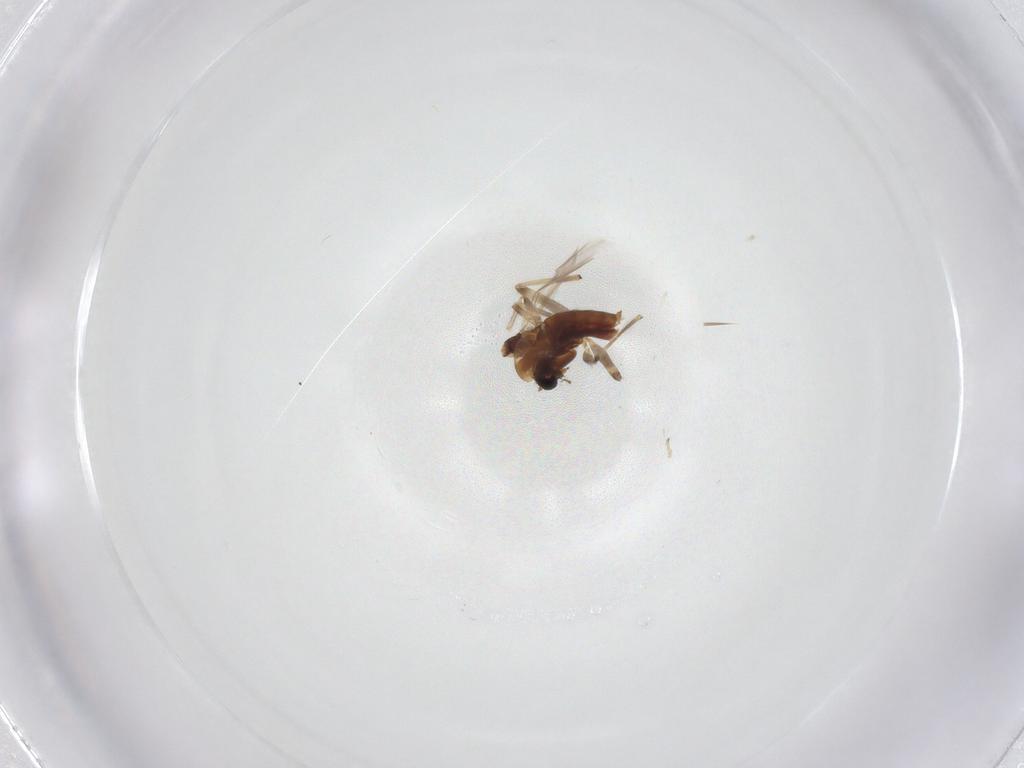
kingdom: Animalia
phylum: Arthropoda
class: Insecta
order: Diptera
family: Chironomidae
